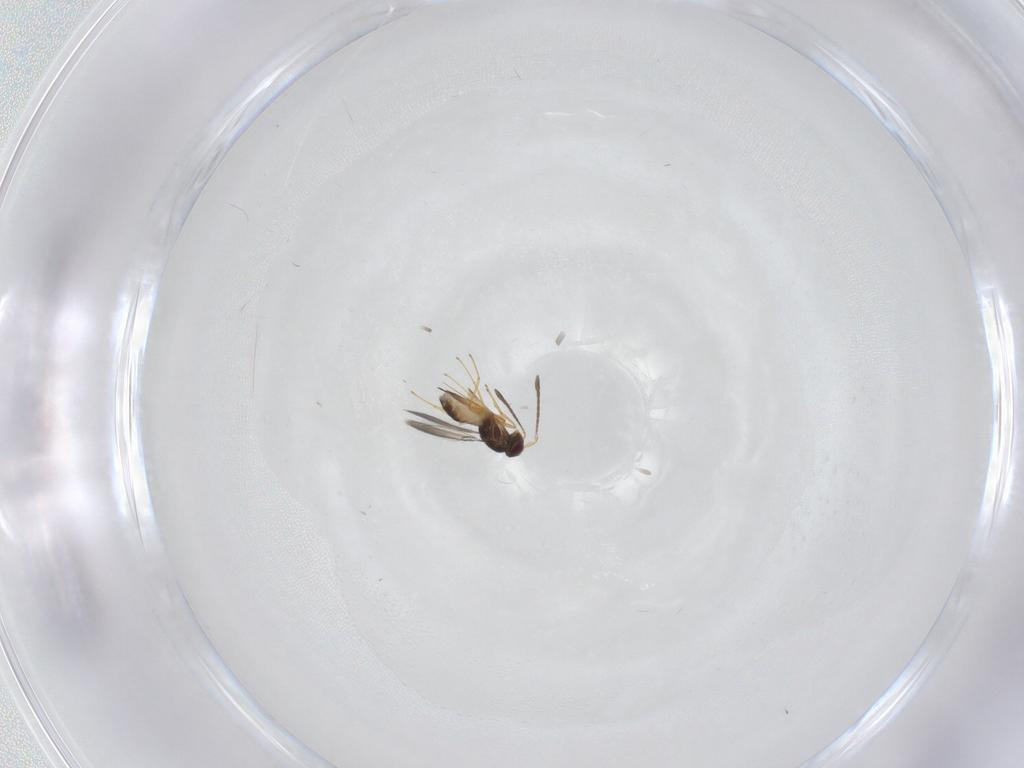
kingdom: Animalia
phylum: Arthropoda
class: Insecta
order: Hymenoptera
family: Mymaridae
